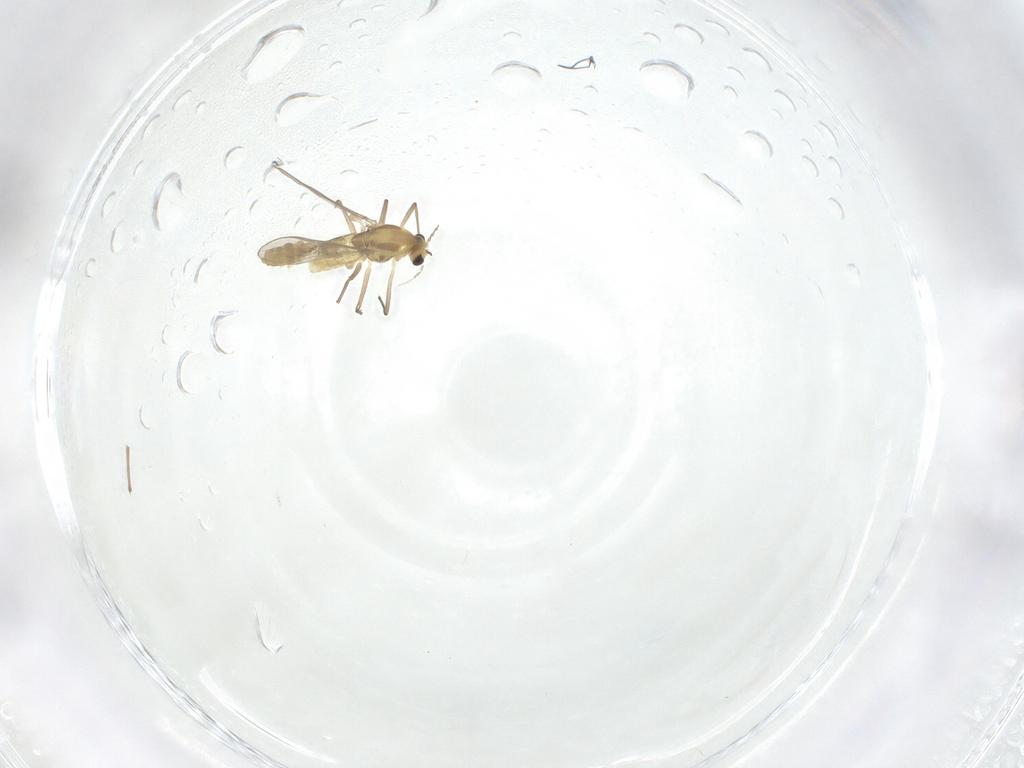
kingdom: Animalia
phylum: Arthropoda
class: Insecta
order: Diptera
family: Chironomidae
